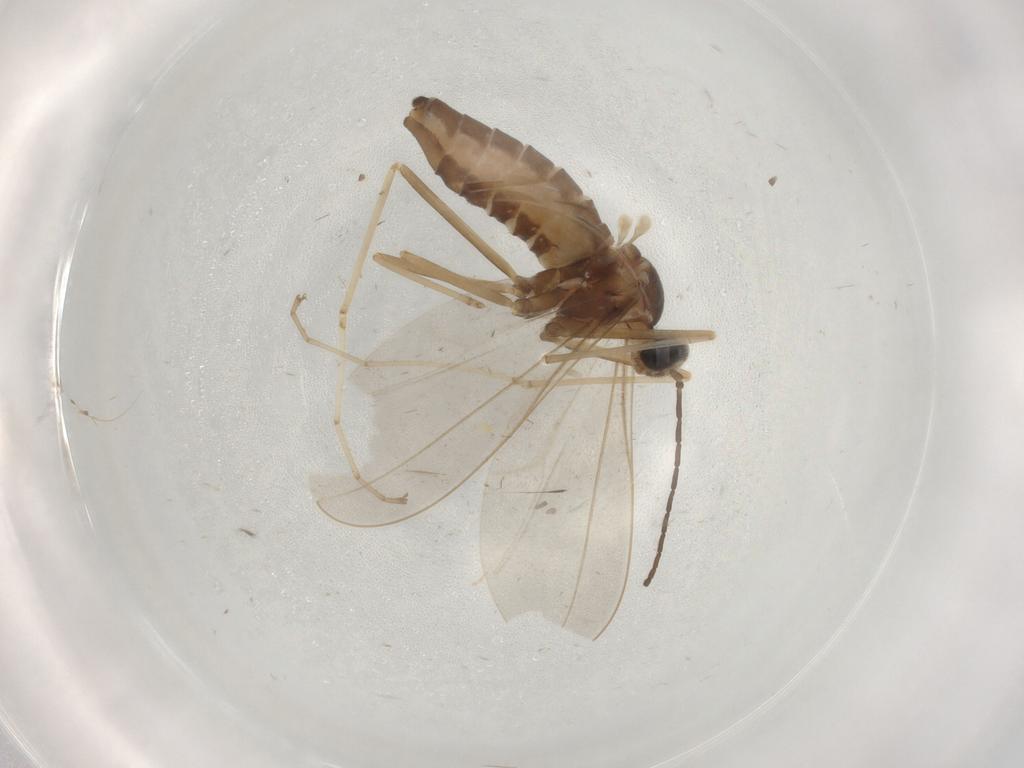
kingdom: Animalia
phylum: Arthropoda
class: Insecta
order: Diptera
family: Cecidomyiidae
